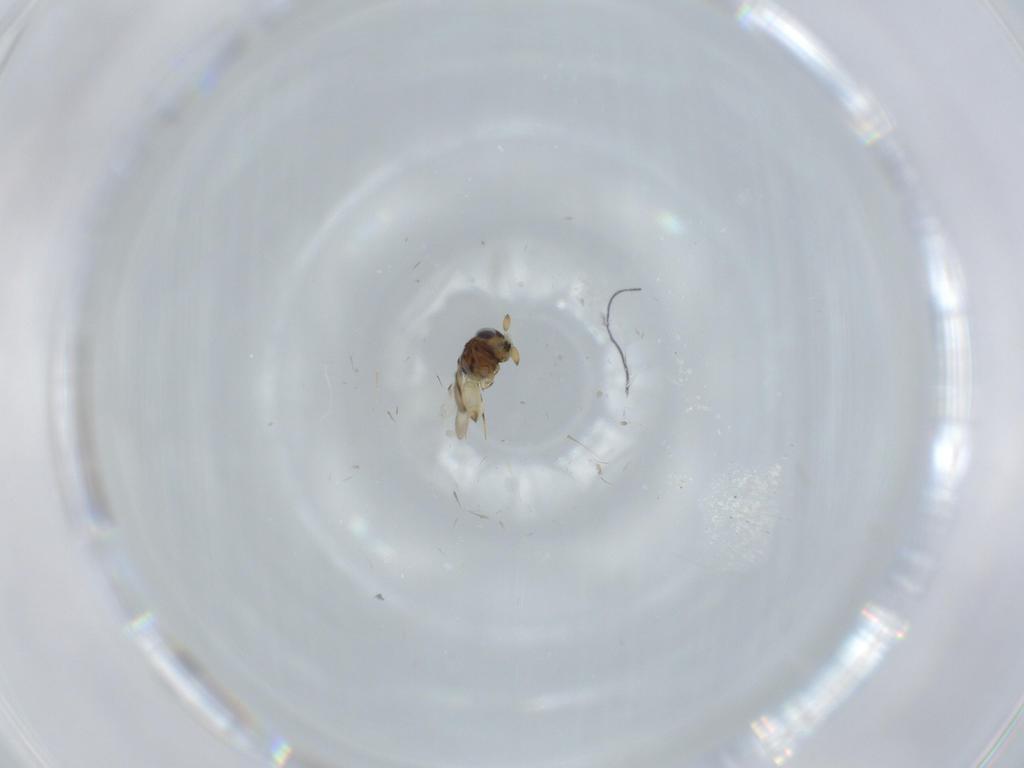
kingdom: Animalia
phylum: Arthropoda
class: Insecta
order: Hymenoptera
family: Scelionidae
